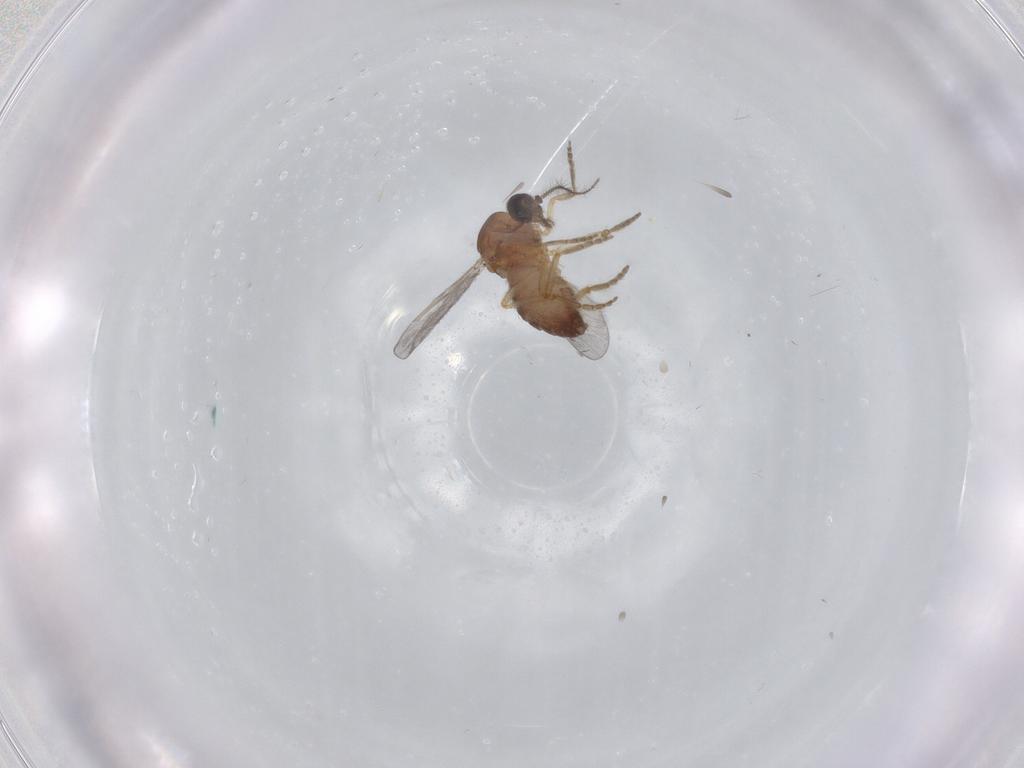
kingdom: Animalia
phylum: Arthropoda
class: Insecta
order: Diptera
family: Ceratopogonidae
